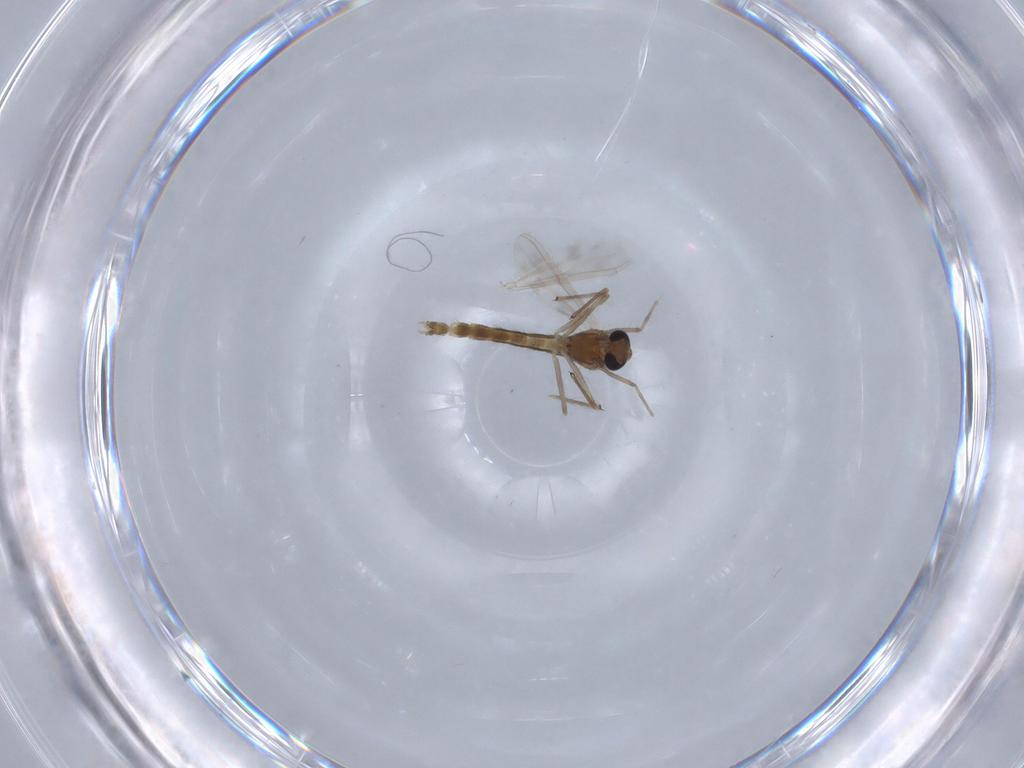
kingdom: Animalia
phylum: Arthropoda
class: Insecta
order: Diptera
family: Chironomidae
